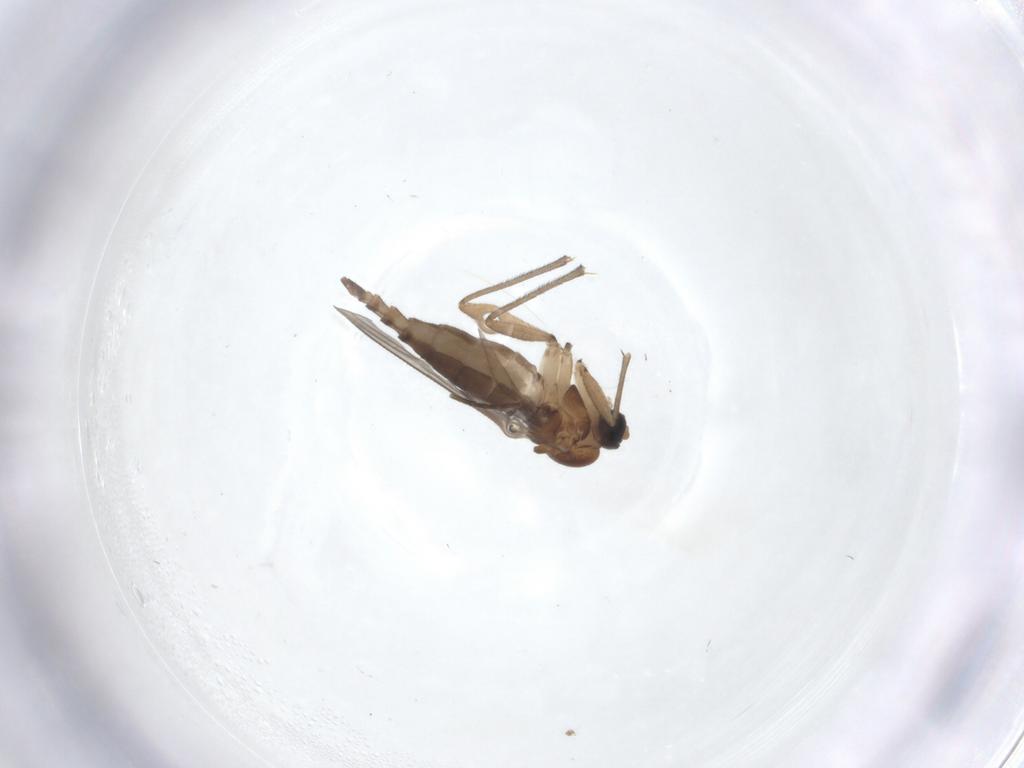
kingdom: Animalia
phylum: Arthropoda
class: Insecta
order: Diptera
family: Sciaridae
